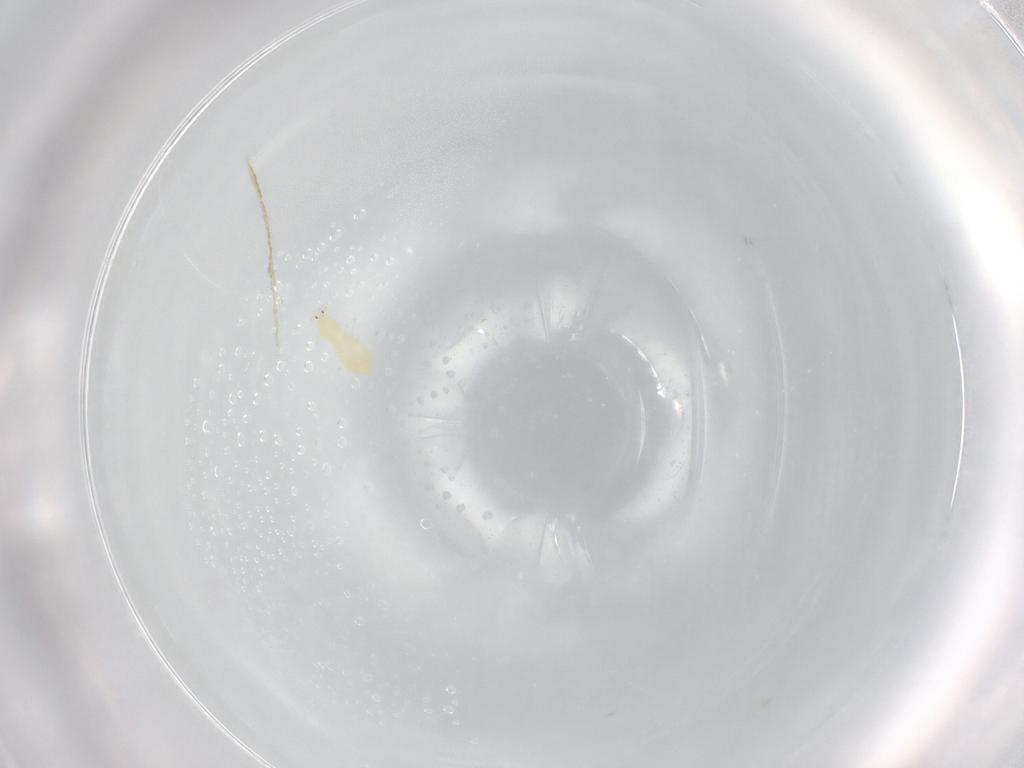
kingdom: Animalia
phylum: Arthropoda
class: Insecta
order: Thysanoptera
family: Thripidae
